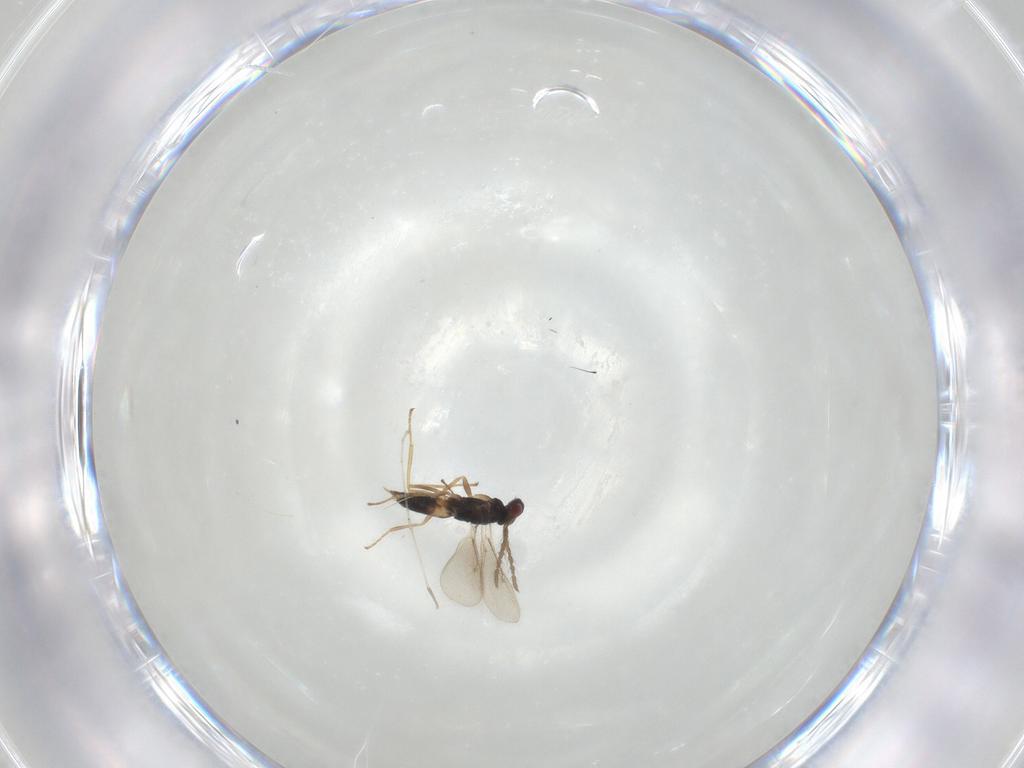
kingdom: Animalia
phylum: Arthropoda
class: Insecta
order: Hymenoptera
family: Eulophidae
